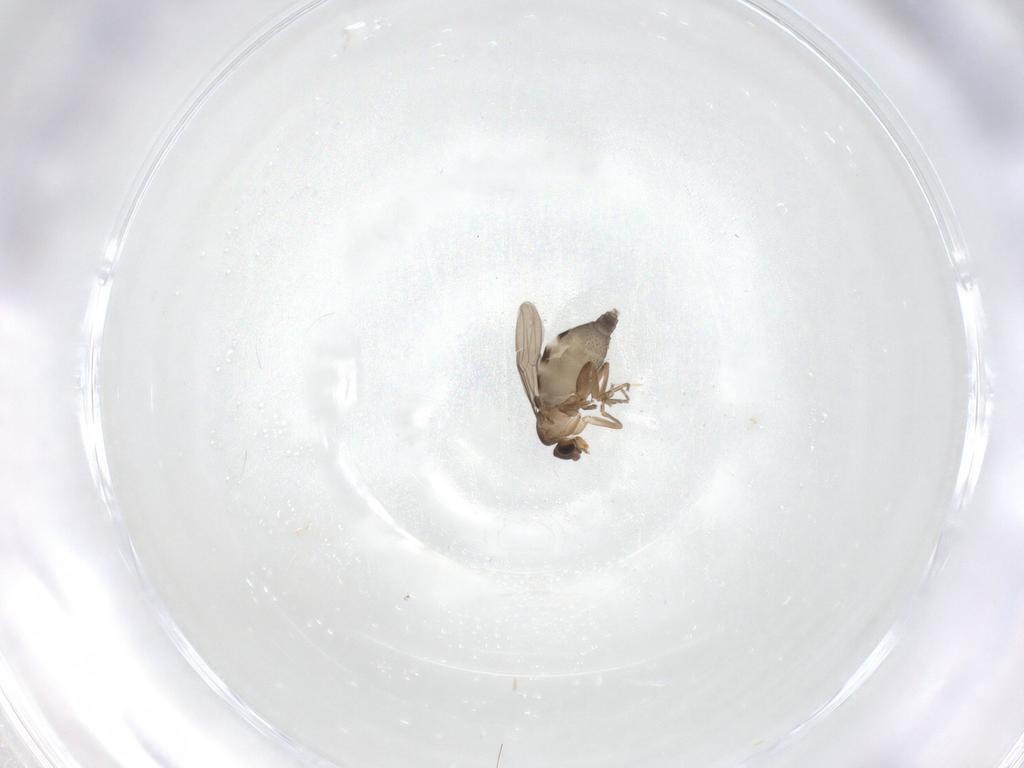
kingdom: Animalia
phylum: Arthropoda
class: Insecta
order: Diptera
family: Phoridae
